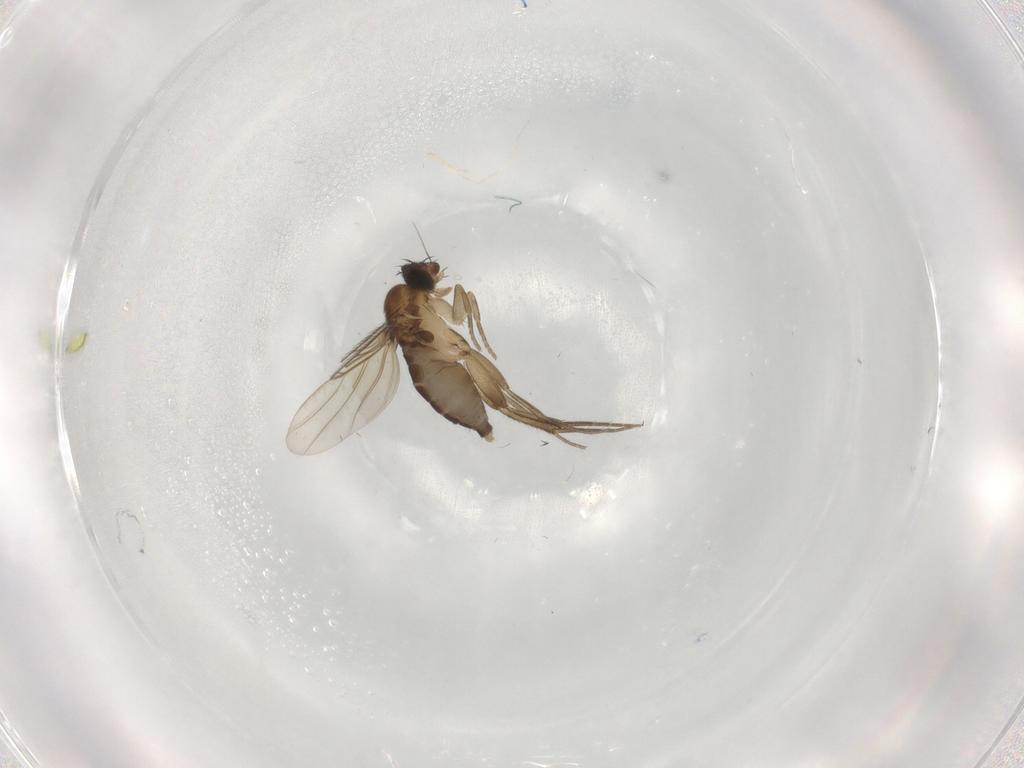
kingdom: Animalia
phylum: Arthropoda
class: Insecta
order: Diptera
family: Phoridae
